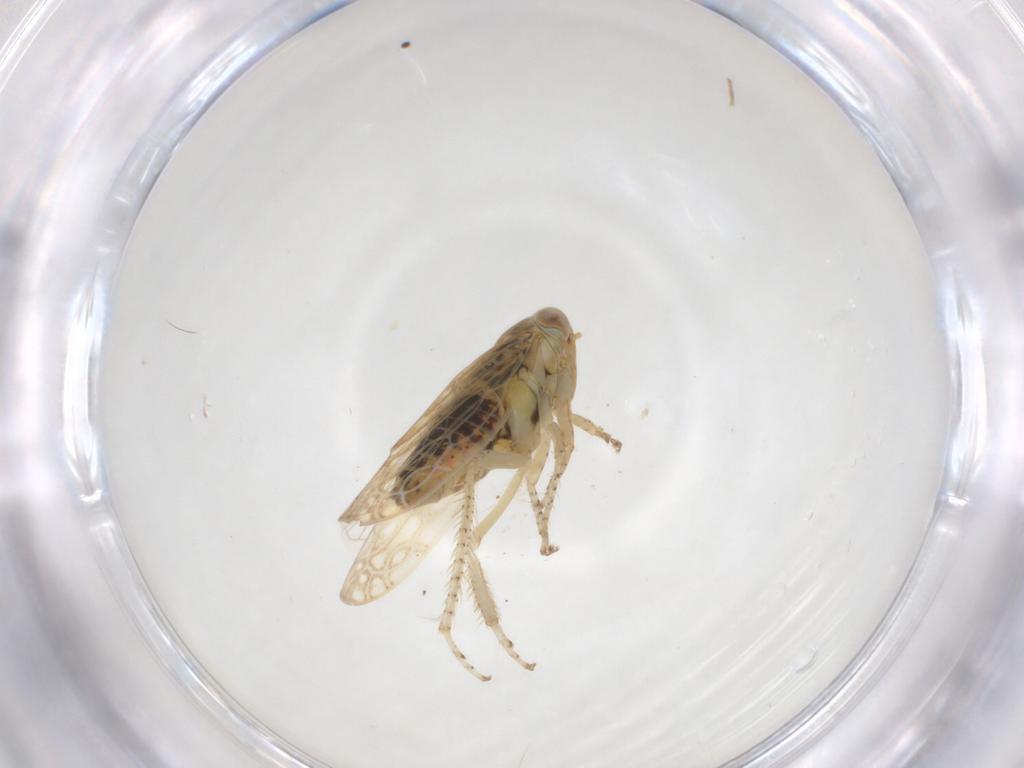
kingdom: Animalia
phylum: Arthropoda
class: Insecta
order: Hemiptera
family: Cicadellidae
